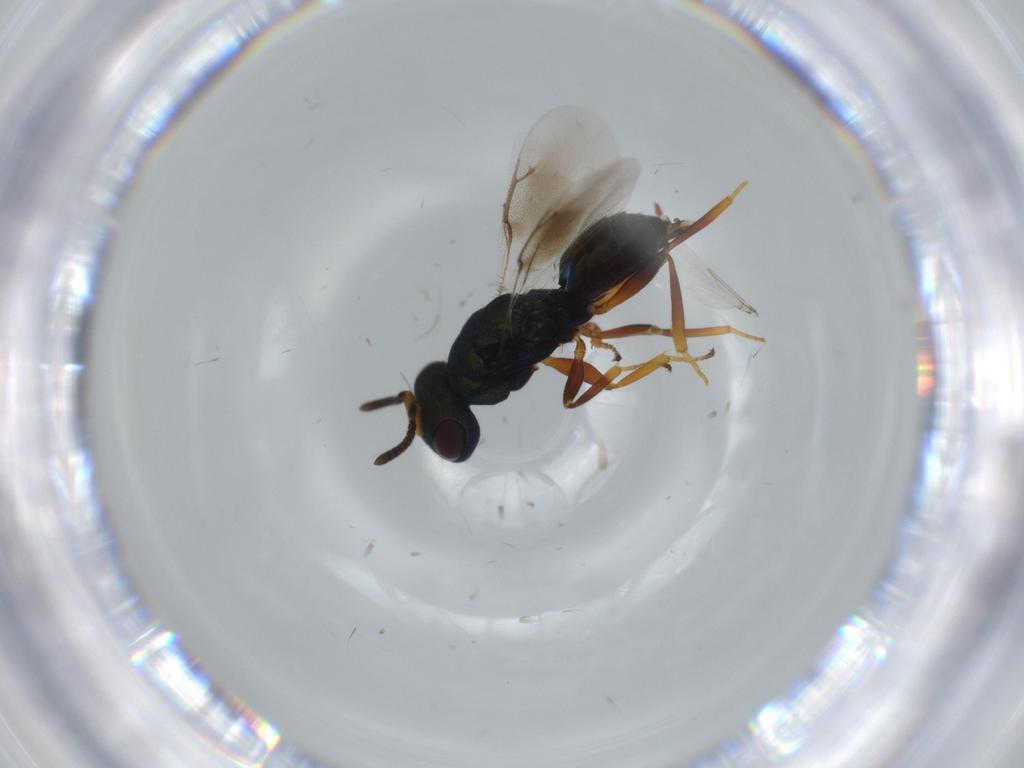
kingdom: Animalia
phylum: Arthropoda
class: Insecta
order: Hymenoptera
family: Pteromalidae
